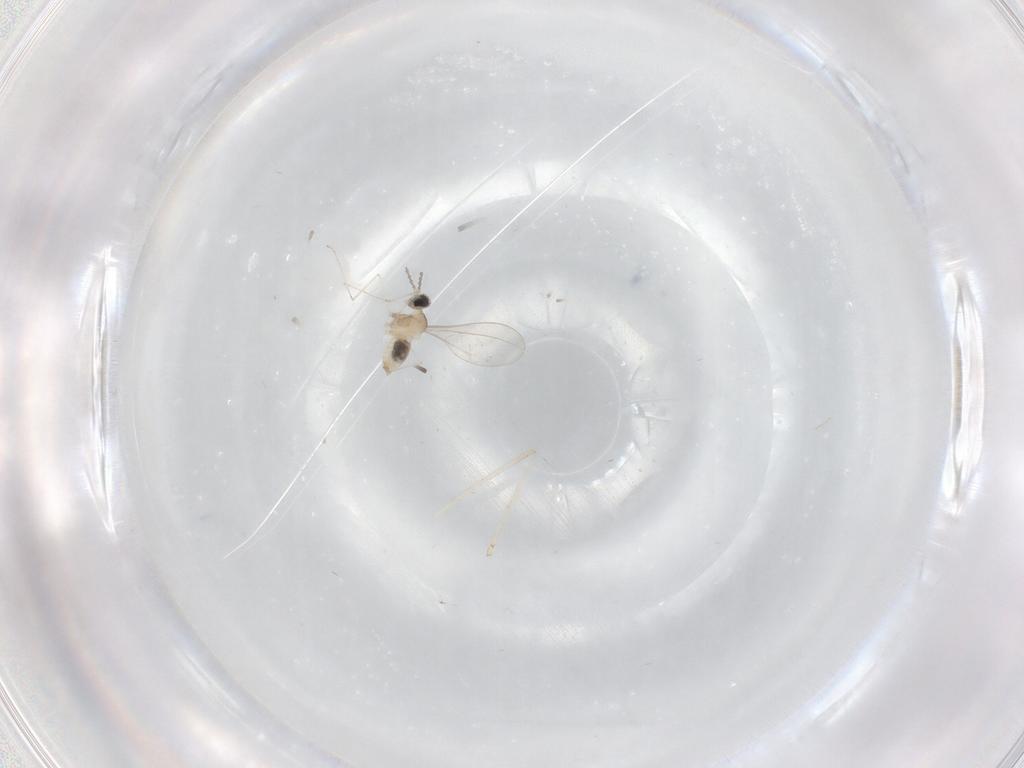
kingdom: Animalia
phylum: Arthropoda
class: Insecta
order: Diptera
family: Cecidomyiidae
